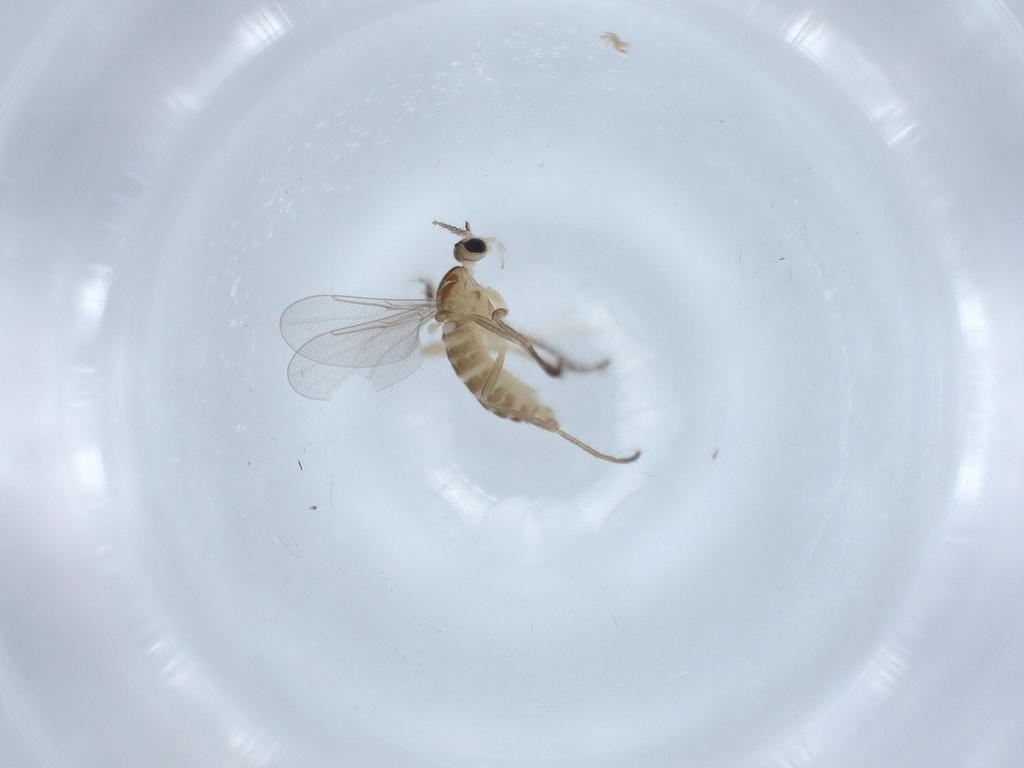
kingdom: Animalia
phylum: Arthropoda
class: Insecta
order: Diptera
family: Cecidomyiidae
